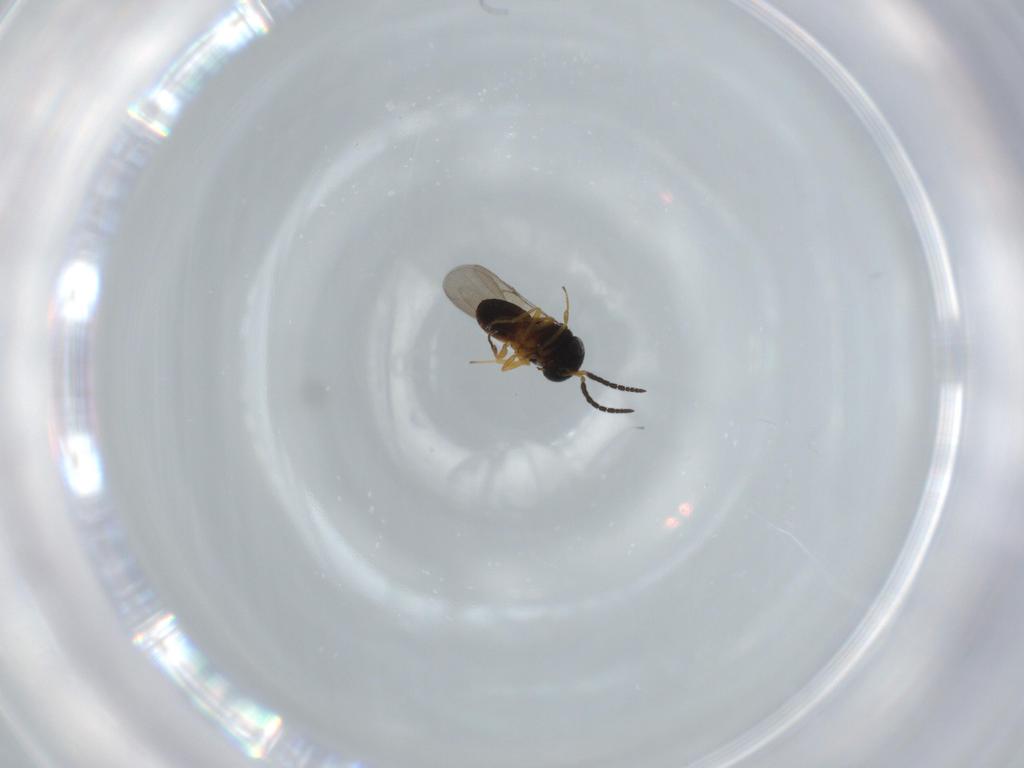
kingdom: Animalia
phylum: Arthropoda
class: Insecta
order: Hymenoptera
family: Scelionidae
